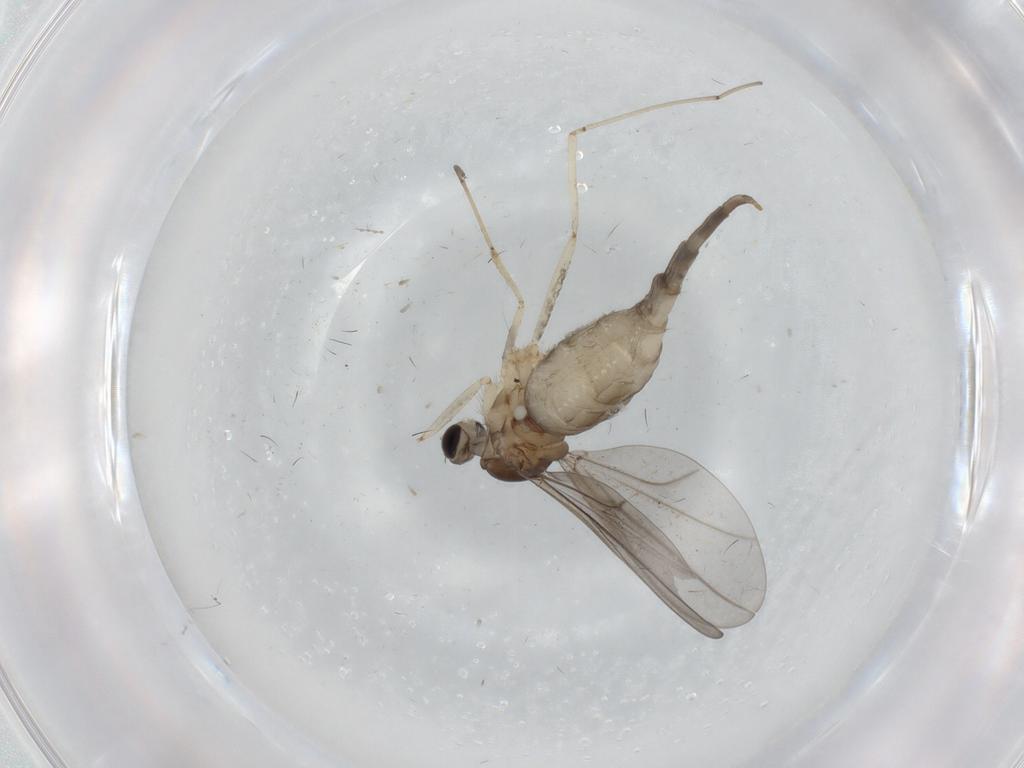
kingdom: Animalia
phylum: Arthropoda
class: Insecta
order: Diptera
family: Cecidomyiidae
